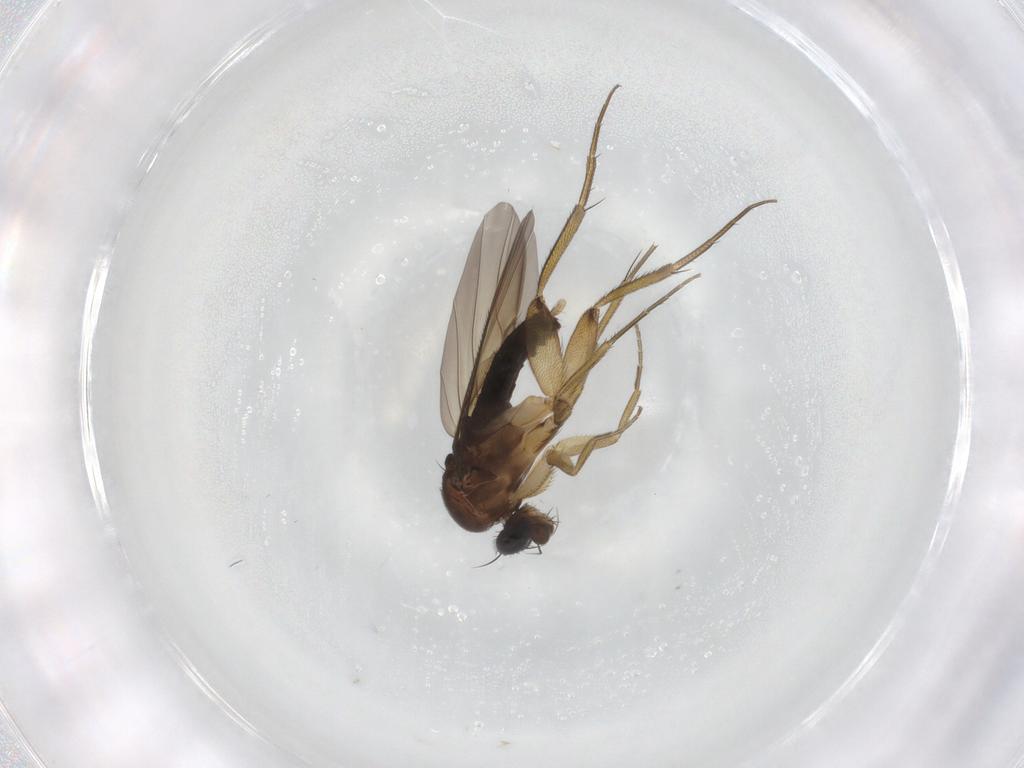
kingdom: Animalia
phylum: Arthropoda
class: Insecta
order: Diptera
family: Phoridae
